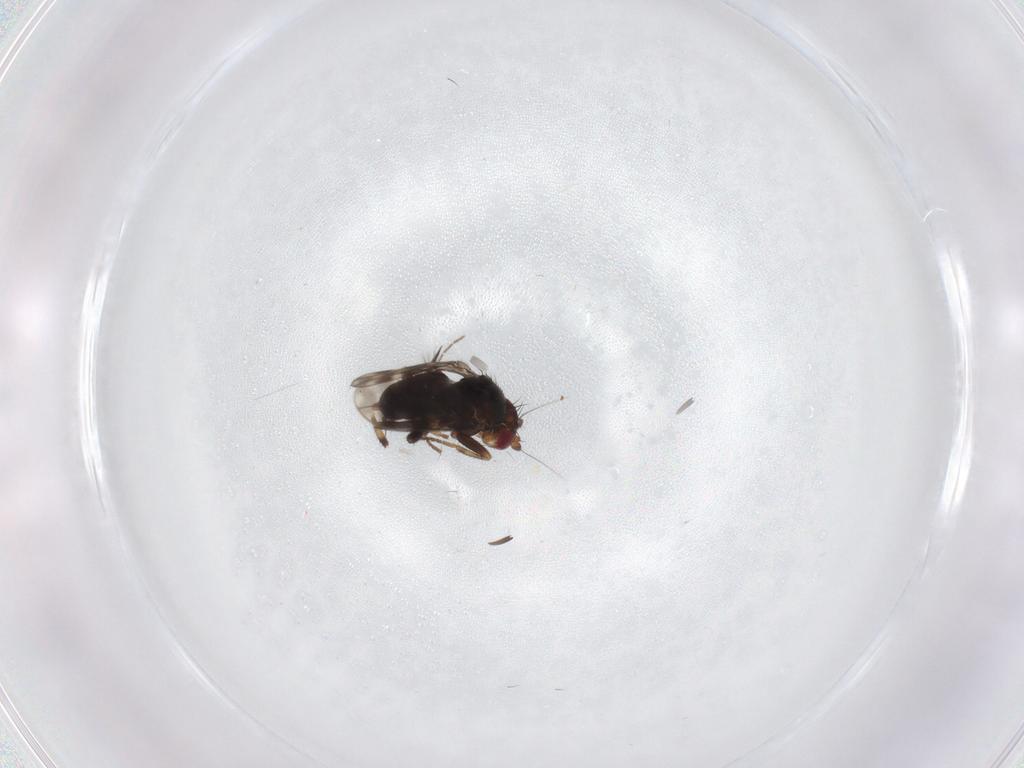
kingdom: Animalia
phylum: Arthropoda
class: Insecta
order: Diptera
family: Sphaeroceridae
